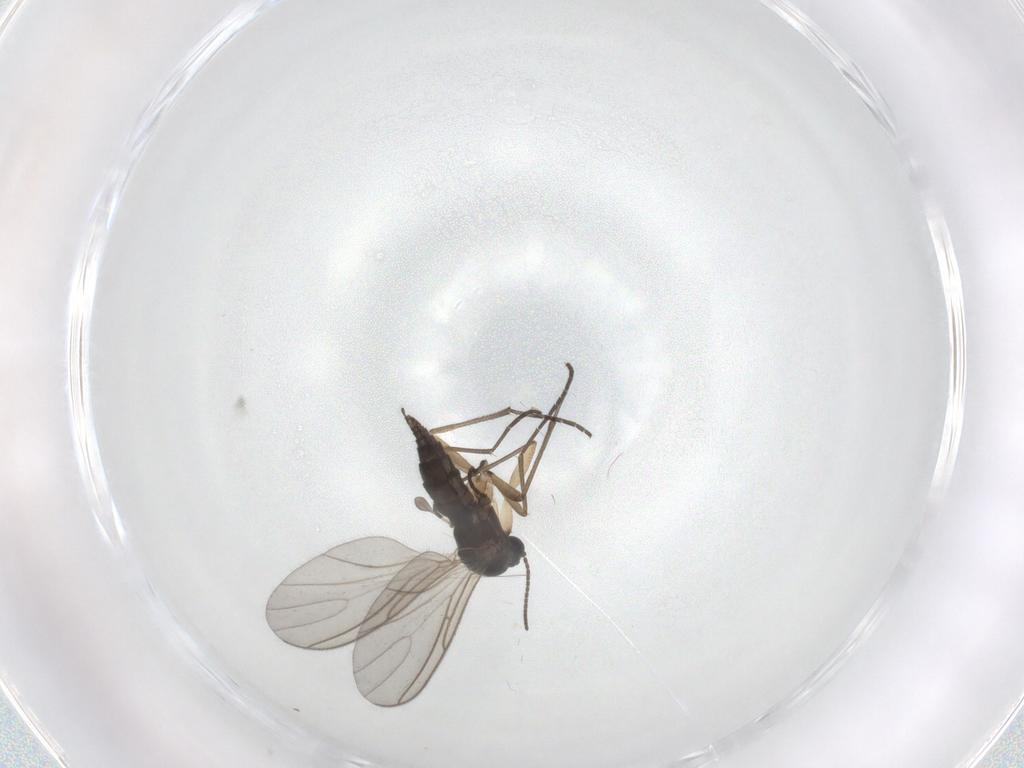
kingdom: Animalia
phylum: Arthropoda
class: Insecta
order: Diptera
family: Sciaridae
